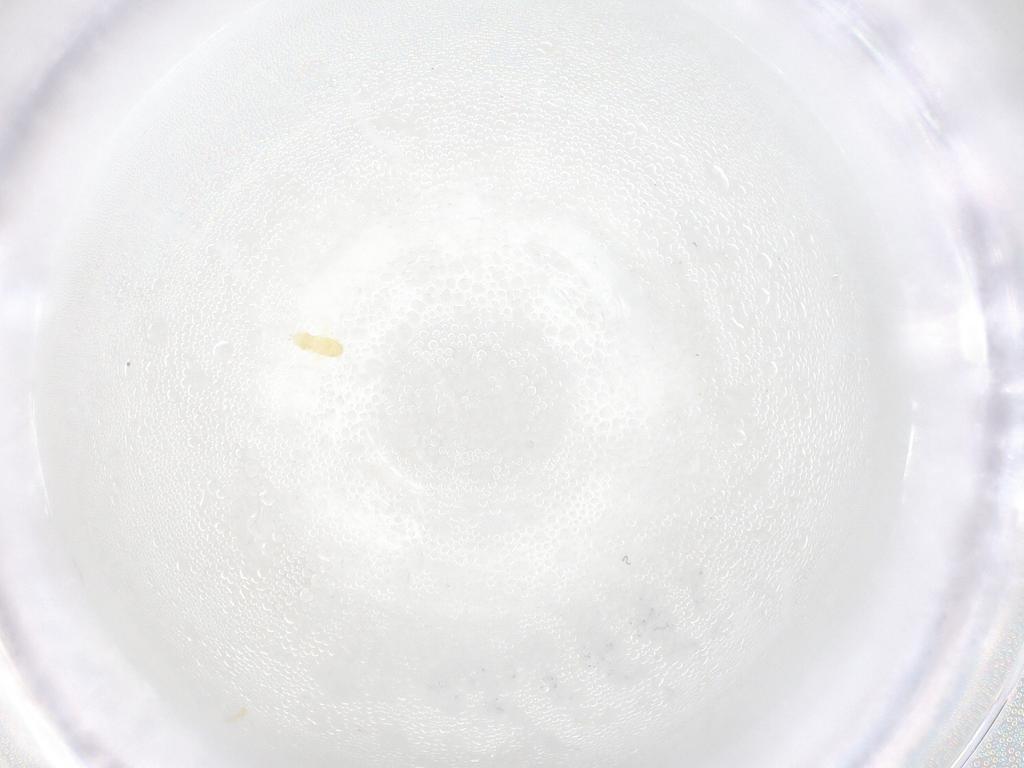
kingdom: Animalia
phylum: Arthropoda
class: Arachnida
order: Trombidiformes
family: Eupodidae
